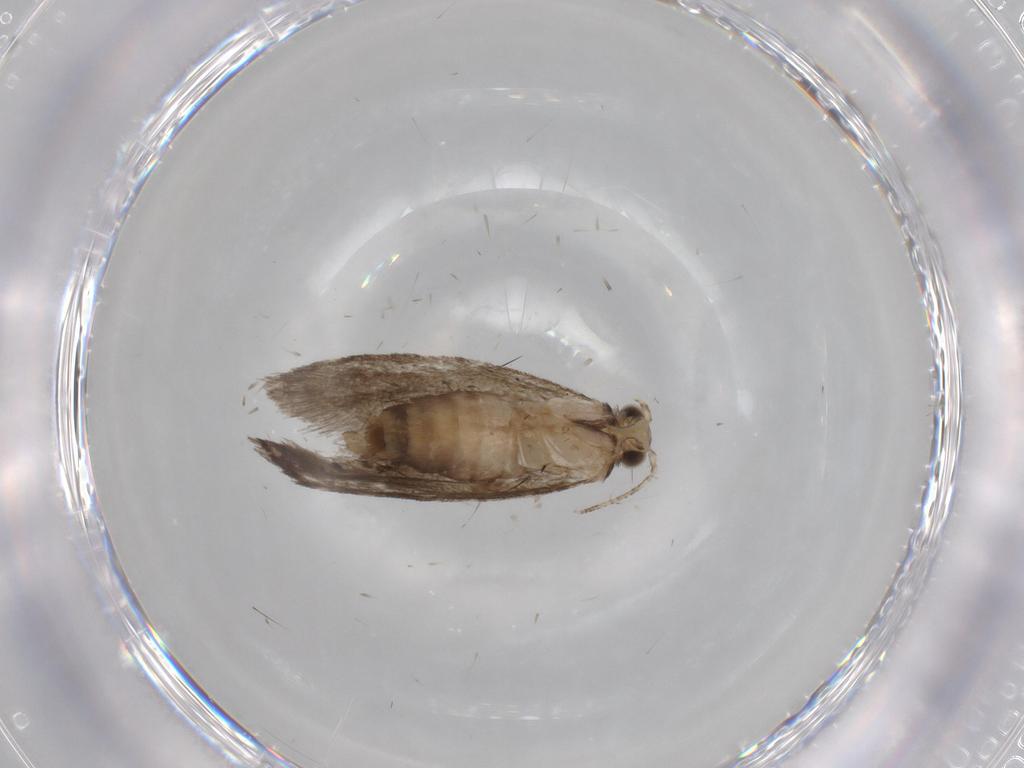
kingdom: Animalia
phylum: Arthropoda
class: Insecta
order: Lepidoptera
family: Tineidae
